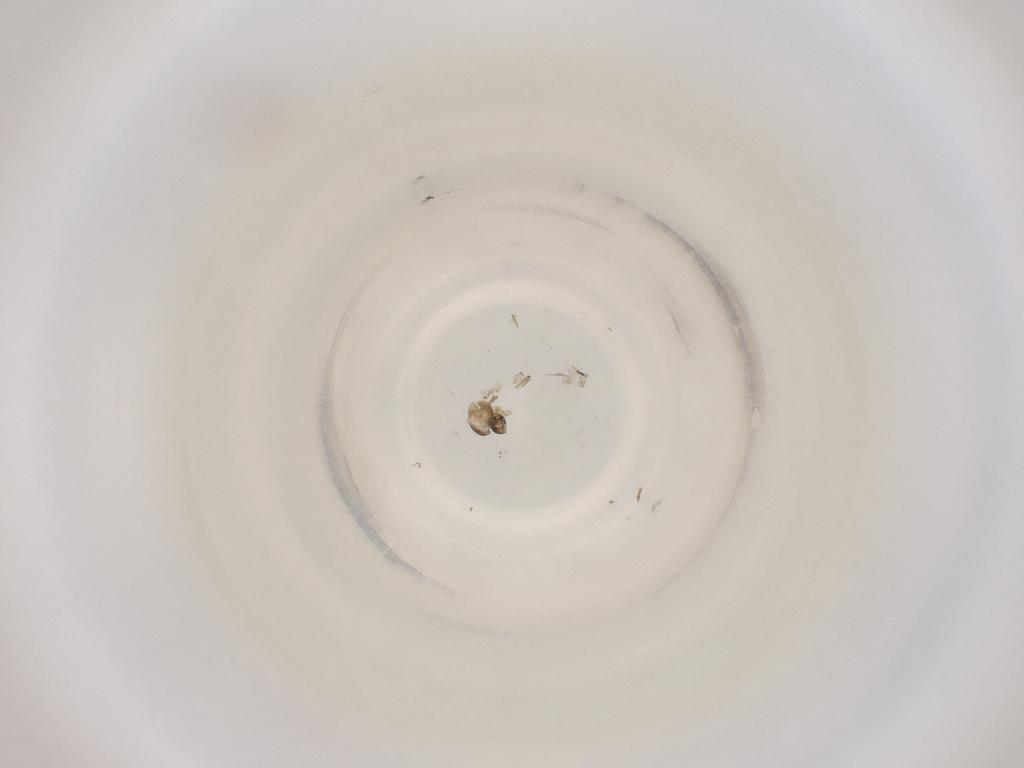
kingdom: Animalia
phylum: Arthropoda
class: Insecta
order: Diptera
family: Cecidomyiidae
